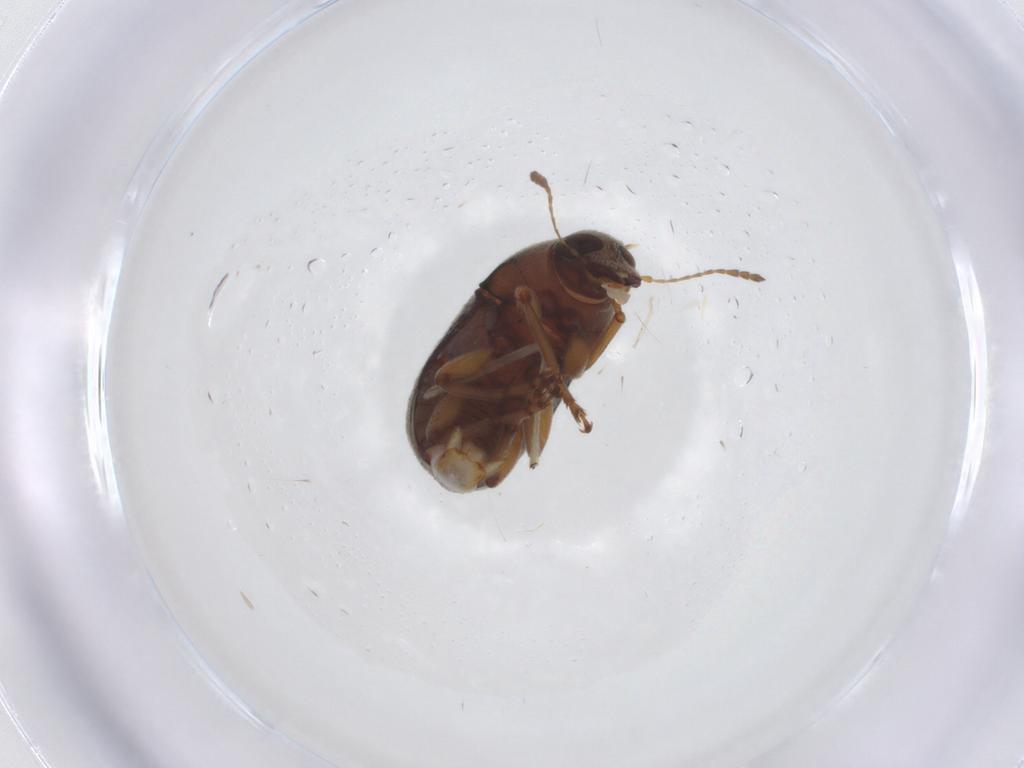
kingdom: Animalia
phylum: Arthropoda
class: Insecta
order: Coleoptera
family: Anthribidae
